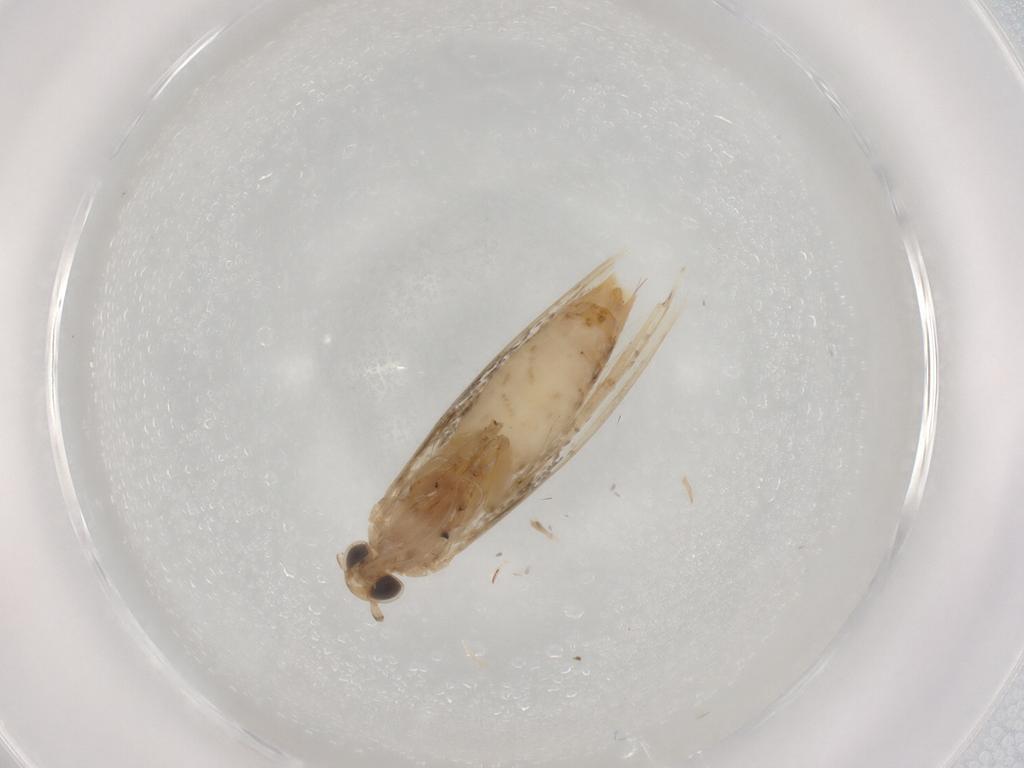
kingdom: Animalia
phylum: Arthropoda
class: Insecta
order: Lepidoptera
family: Nepticulidae
